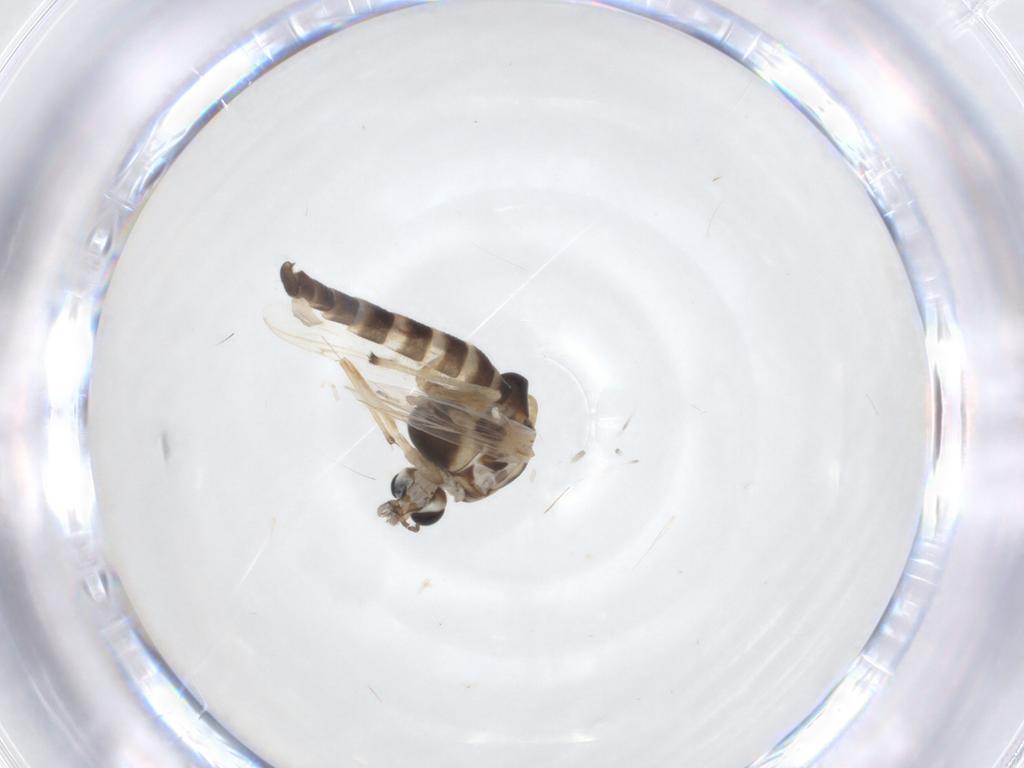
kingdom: Animalia
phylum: Arthropoda
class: Insecta
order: Diptera
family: Chironomidae
